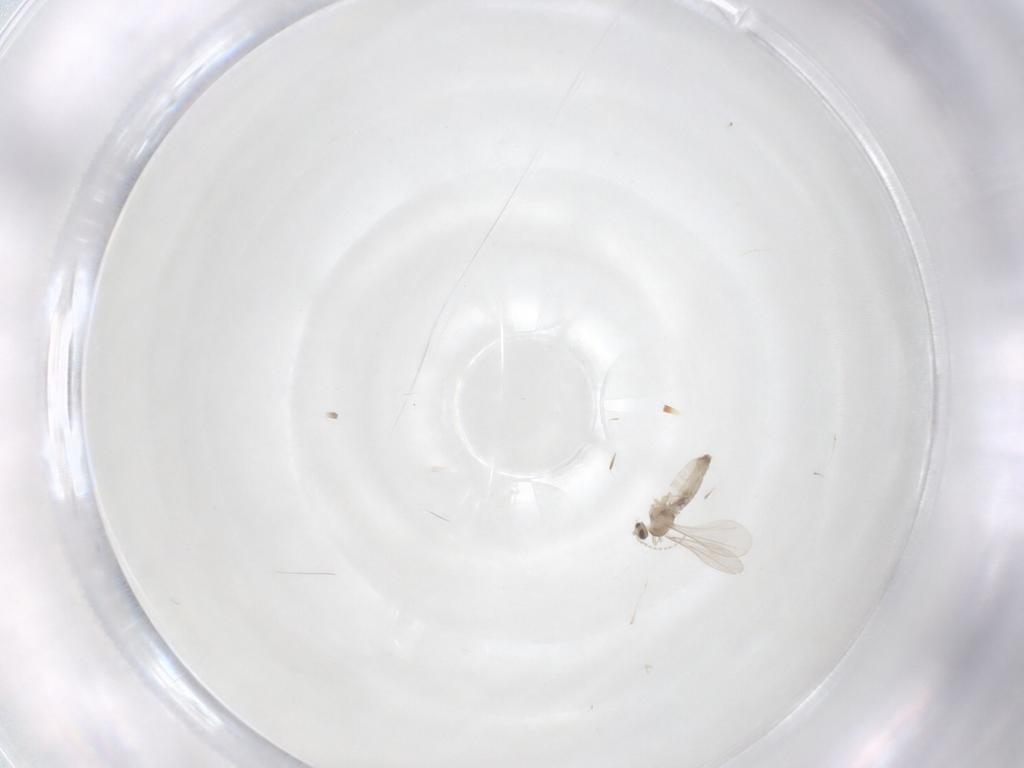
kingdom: Animalia
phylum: Arthropoda
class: Insecta
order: Diptera
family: Cecidomyiidae
